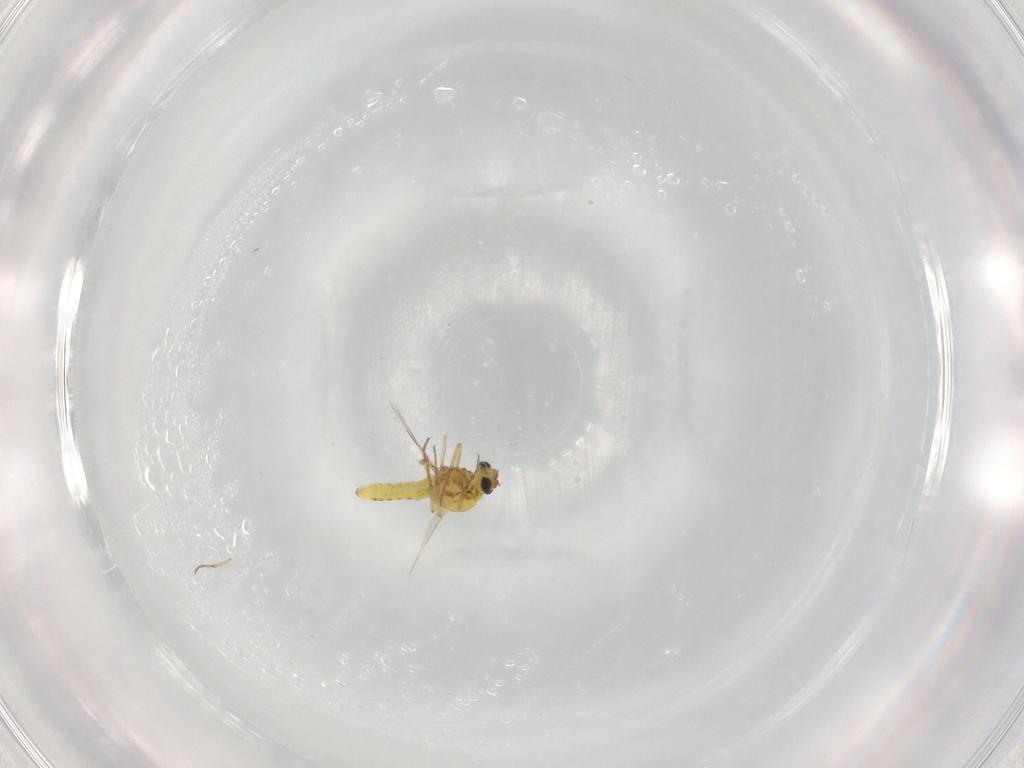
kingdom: Animalia
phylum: Arthropoda
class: Insecta
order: Diptera
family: Ceratopogonidae
